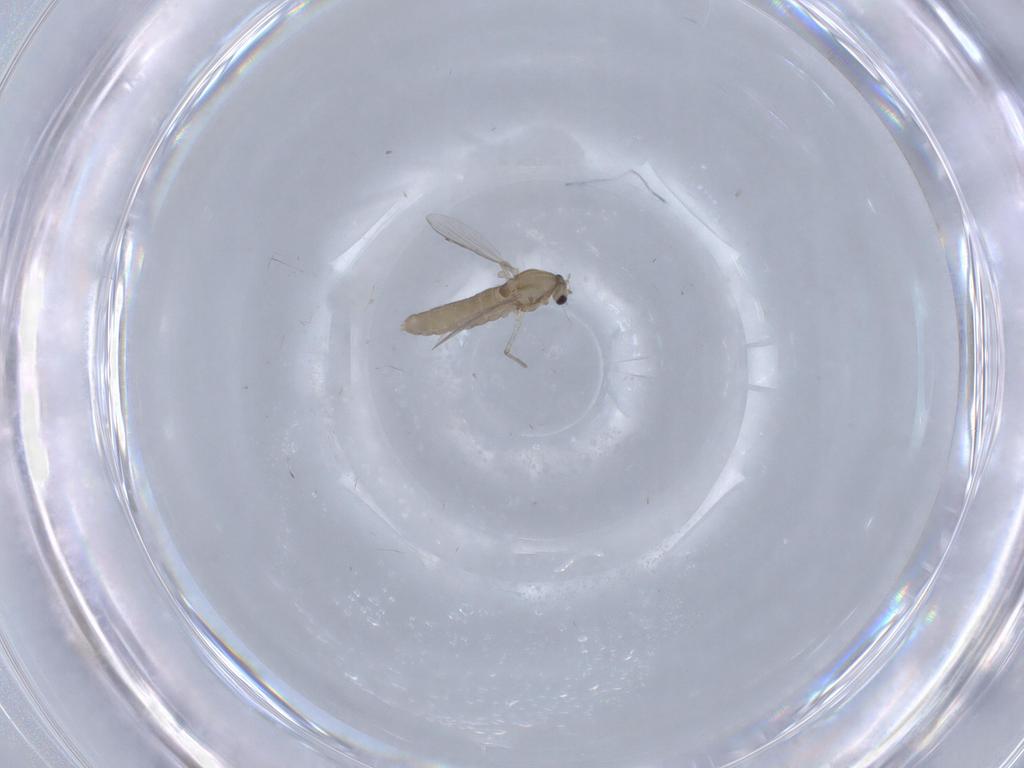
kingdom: Animalia
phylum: Arthropoda
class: Insecta
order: Diptera
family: Chironomidae
